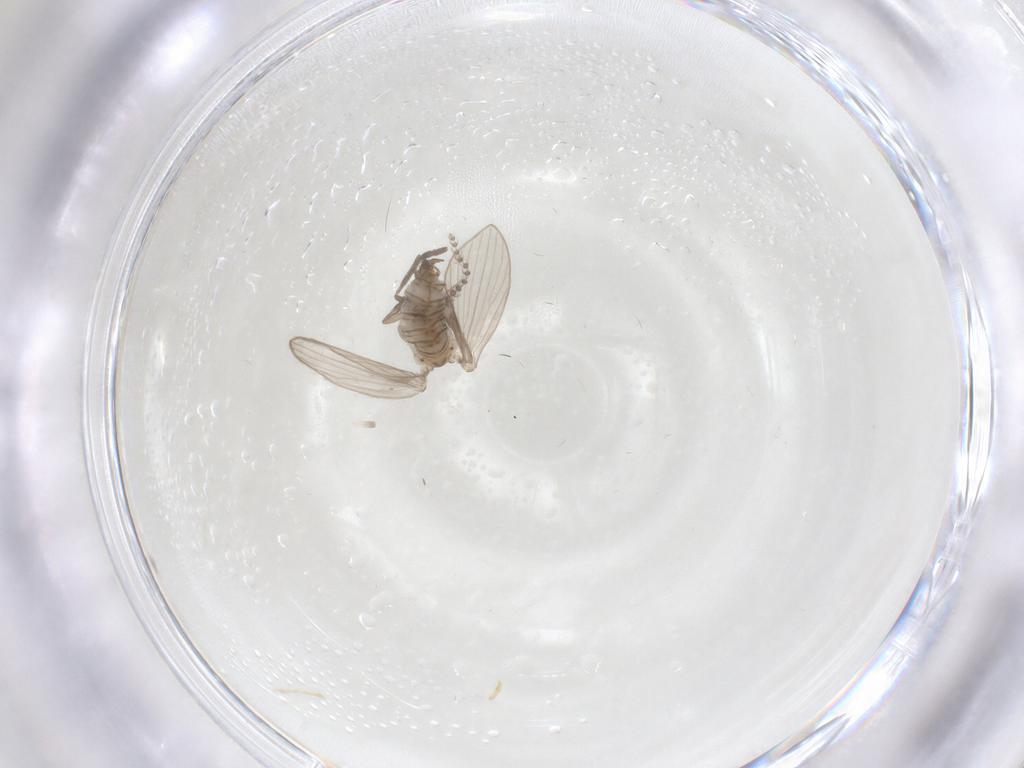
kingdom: Animalia
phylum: Arthropoda
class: Insecta
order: Diptera
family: Psychodidae
